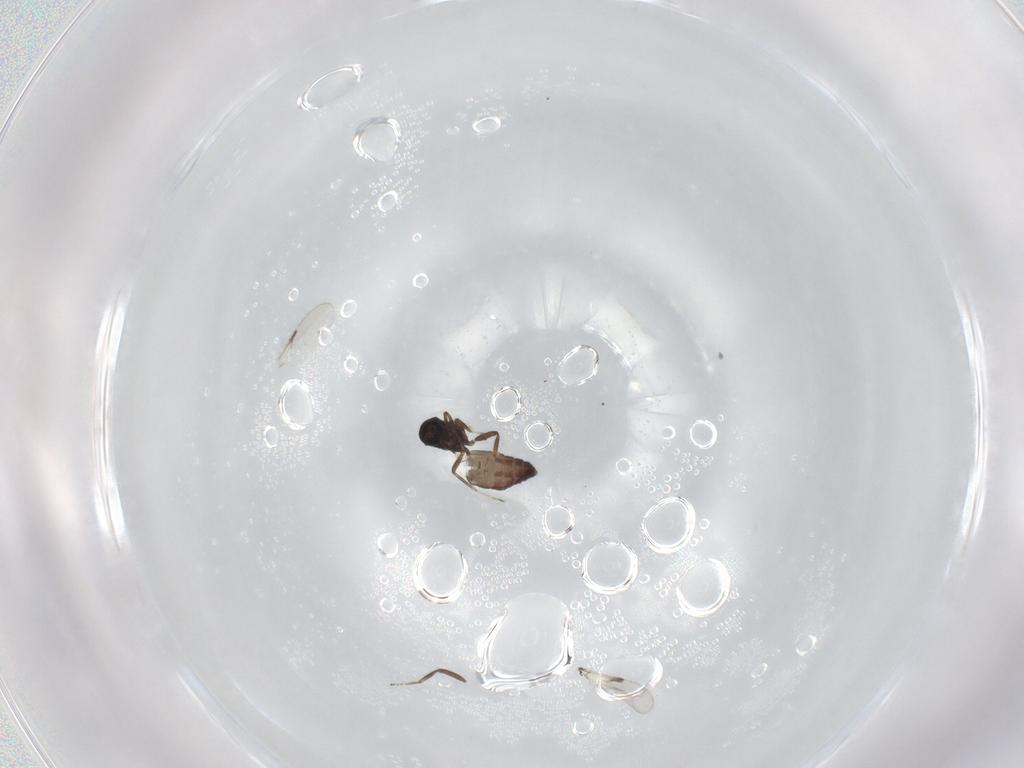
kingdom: Animalia
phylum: Arthropoda
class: Insecta
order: Diptera
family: Ceratopogonidae
